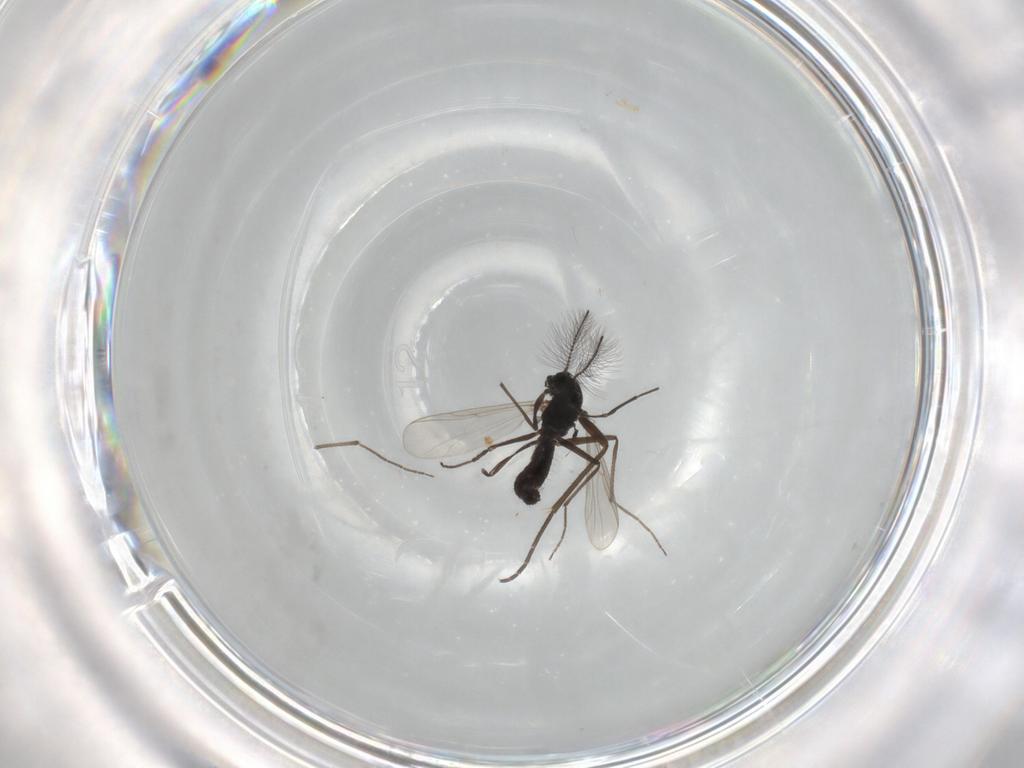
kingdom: Animalia
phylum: Arthropoda
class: Insecta
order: Diptera
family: Chironomidae
